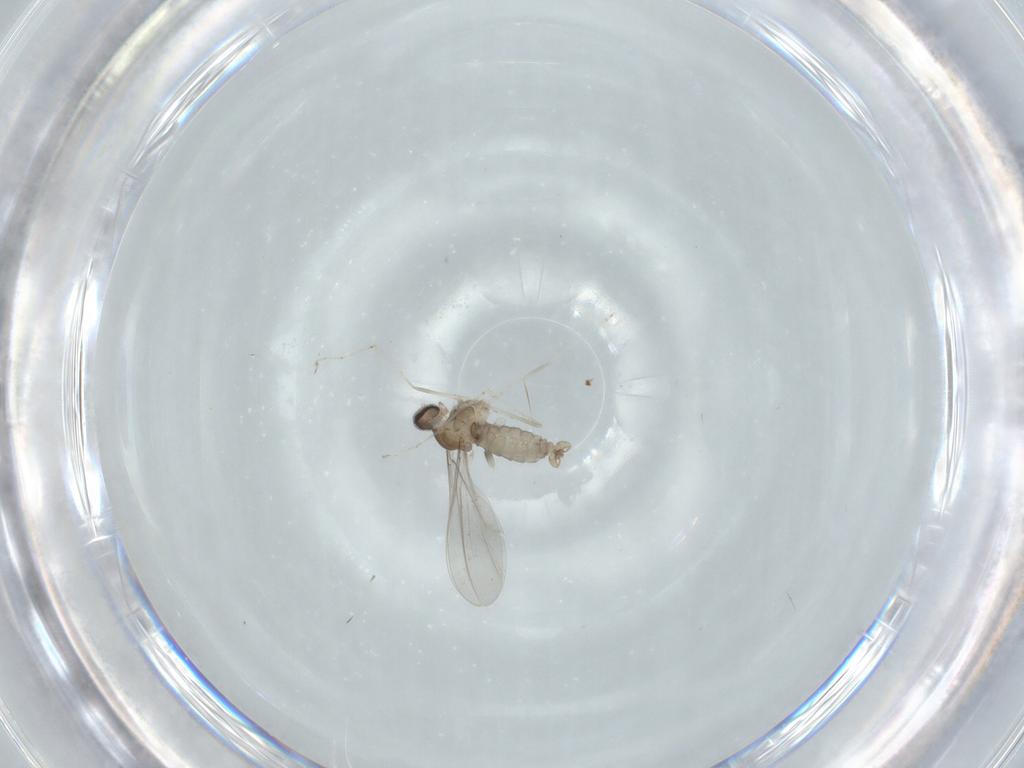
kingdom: Animalia
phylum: Arthropoda
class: Insecta
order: Diptera
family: Cecidomyiidae
